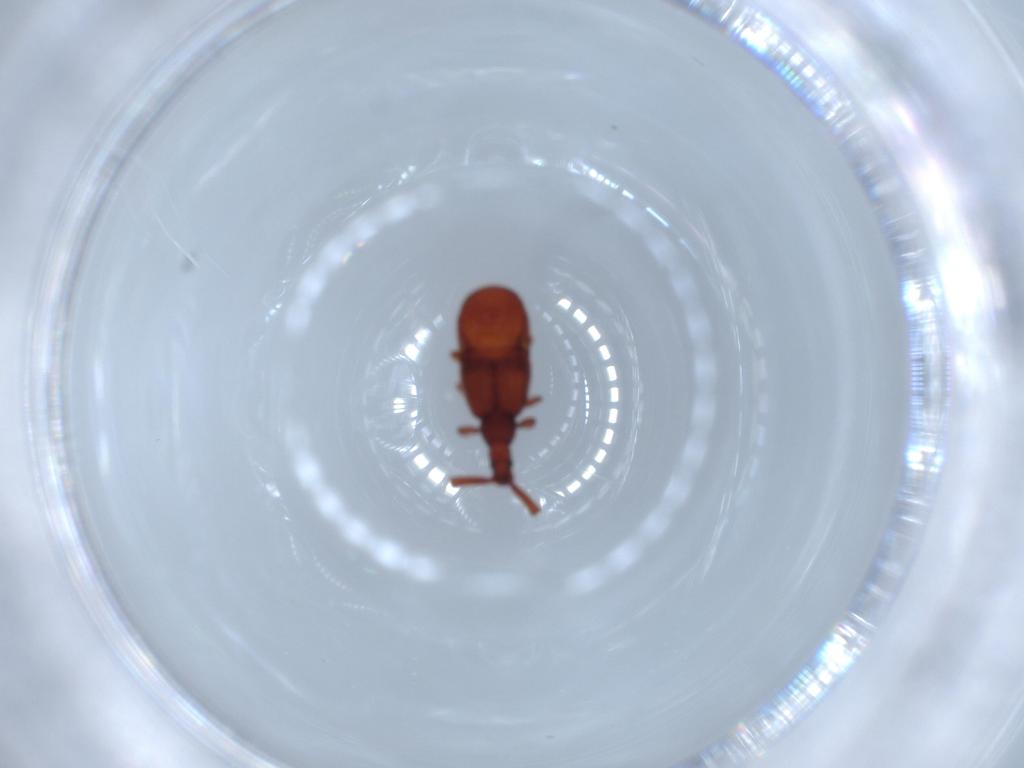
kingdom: Animalia
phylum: Arthropoda
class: Insecta
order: Coleoptera
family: Staphylinidae
